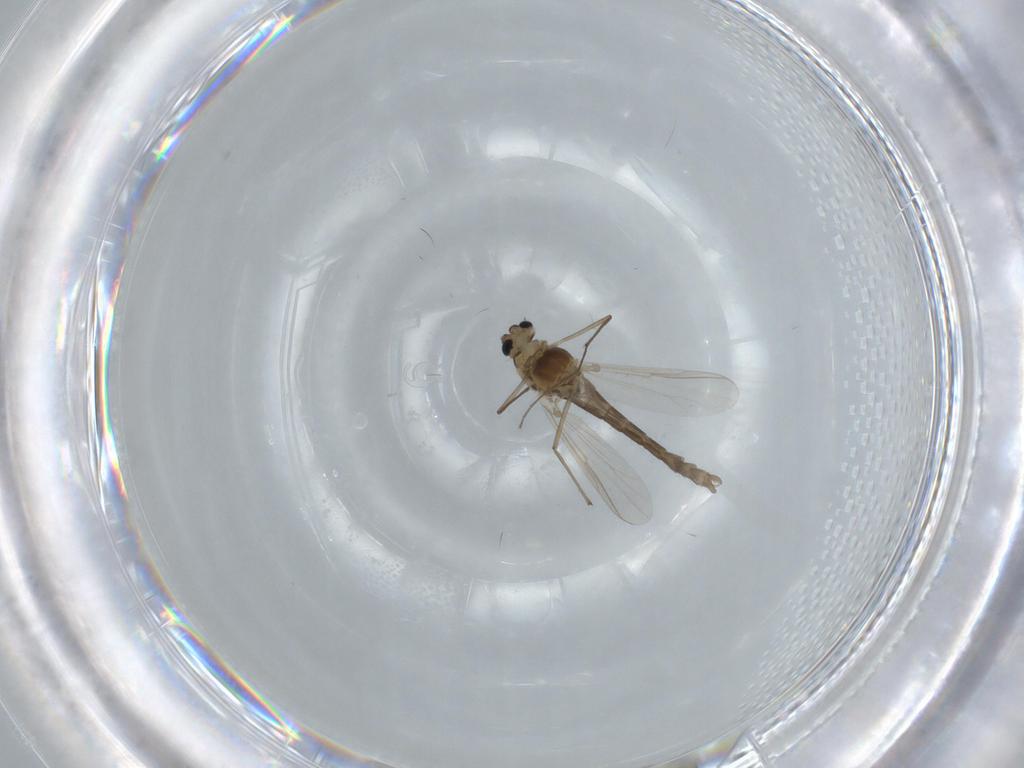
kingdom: Animalia
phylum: Arthropoda
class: Insecta
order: Diptera
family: Chironomidae
